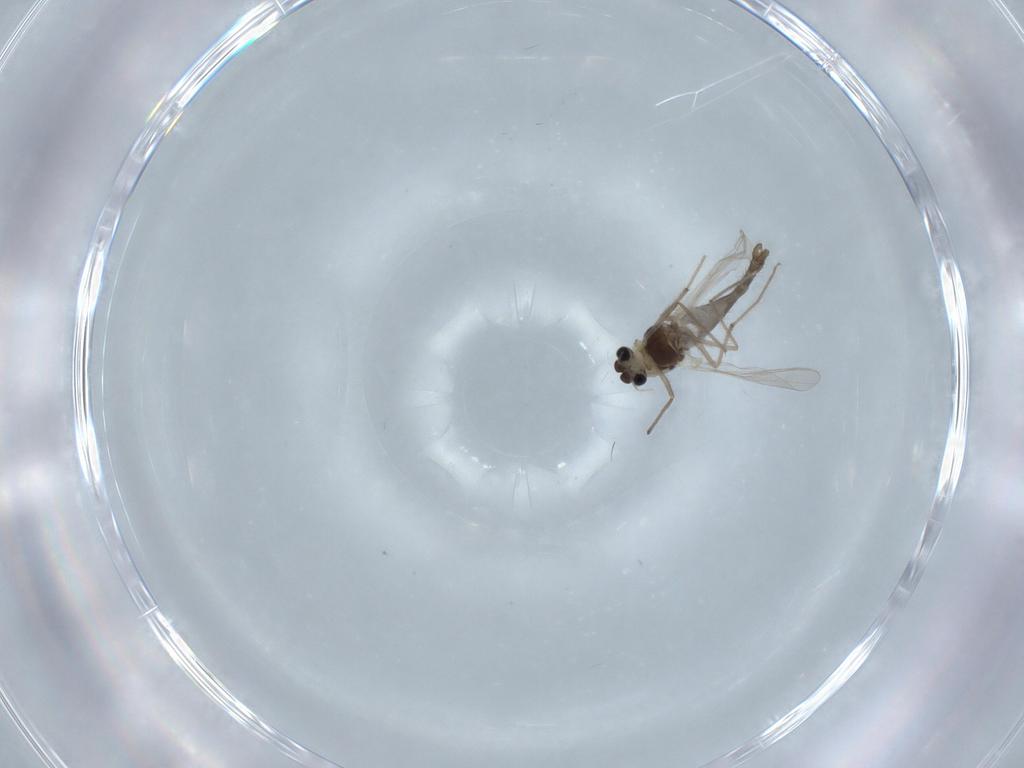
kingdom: Animalia
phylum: Arthropoda
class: Insecta
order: Diptera
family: Chironomidae
